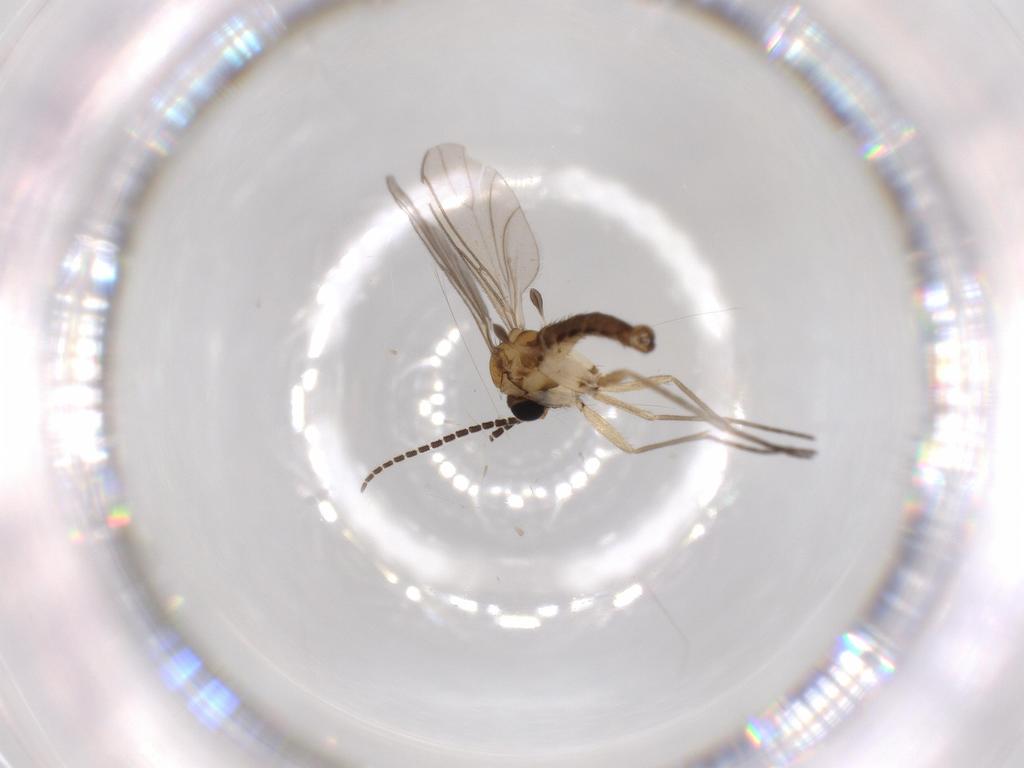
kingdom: Animalia
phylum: Arthropoda
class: Insecta
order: Diptera
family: Sciaridae
